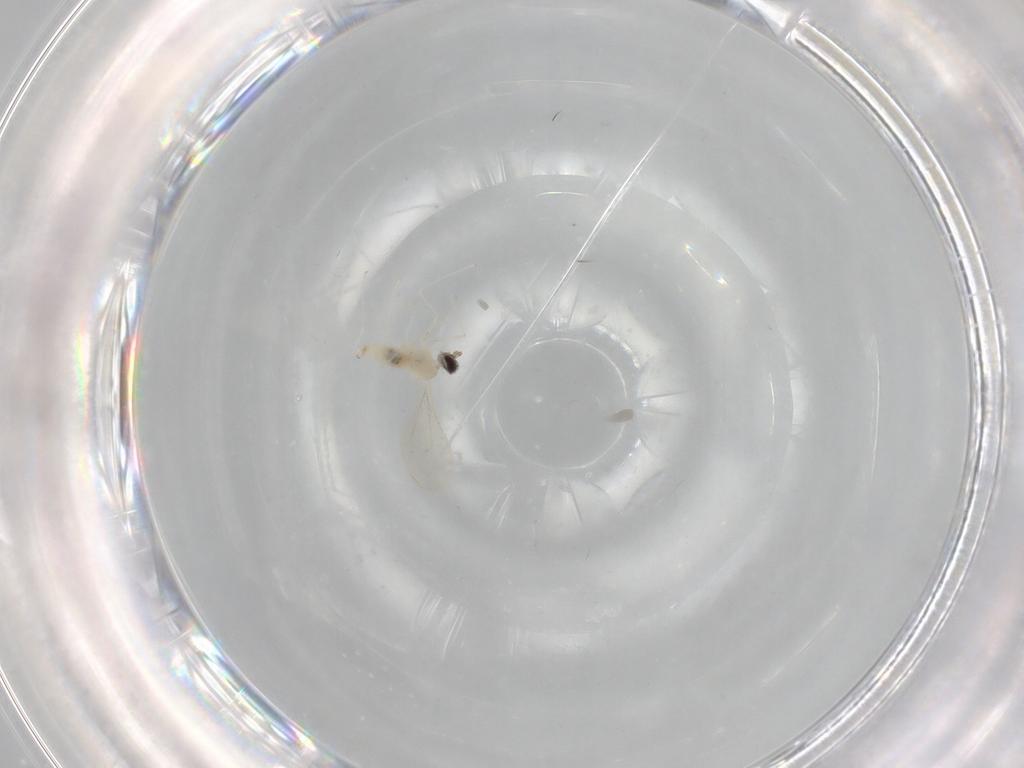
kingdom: Animalia
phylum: Arthropoda
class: Insecta
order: Diptera
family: Cecidomyiidae
